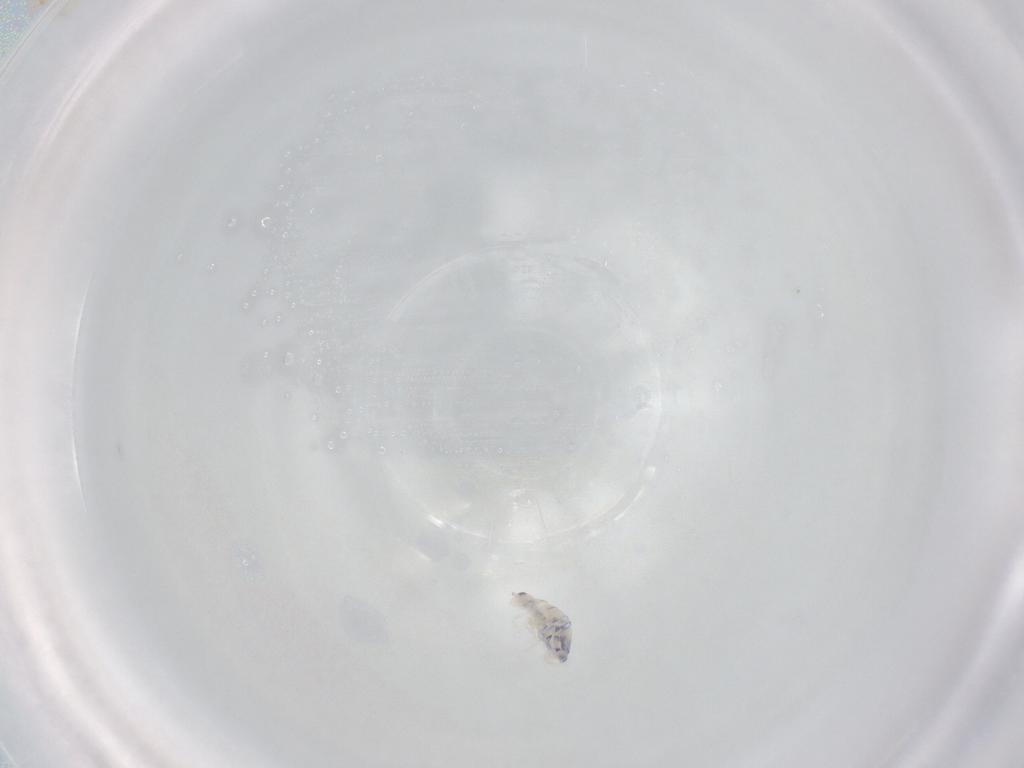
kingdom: Animalia
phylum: Arthropoda
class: Collembola
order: Entomobryomorpha
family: Entomobryidae
